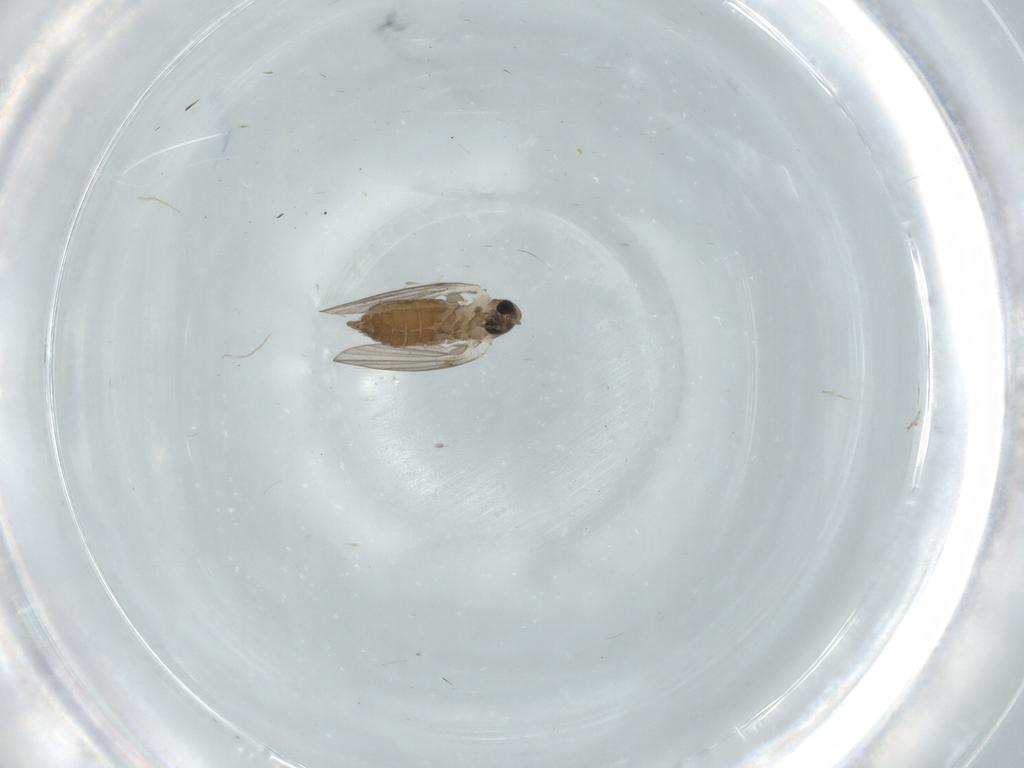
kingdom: Animalia
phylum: Arthropoda
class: Insecta
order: Diptera
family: Psychodidae
